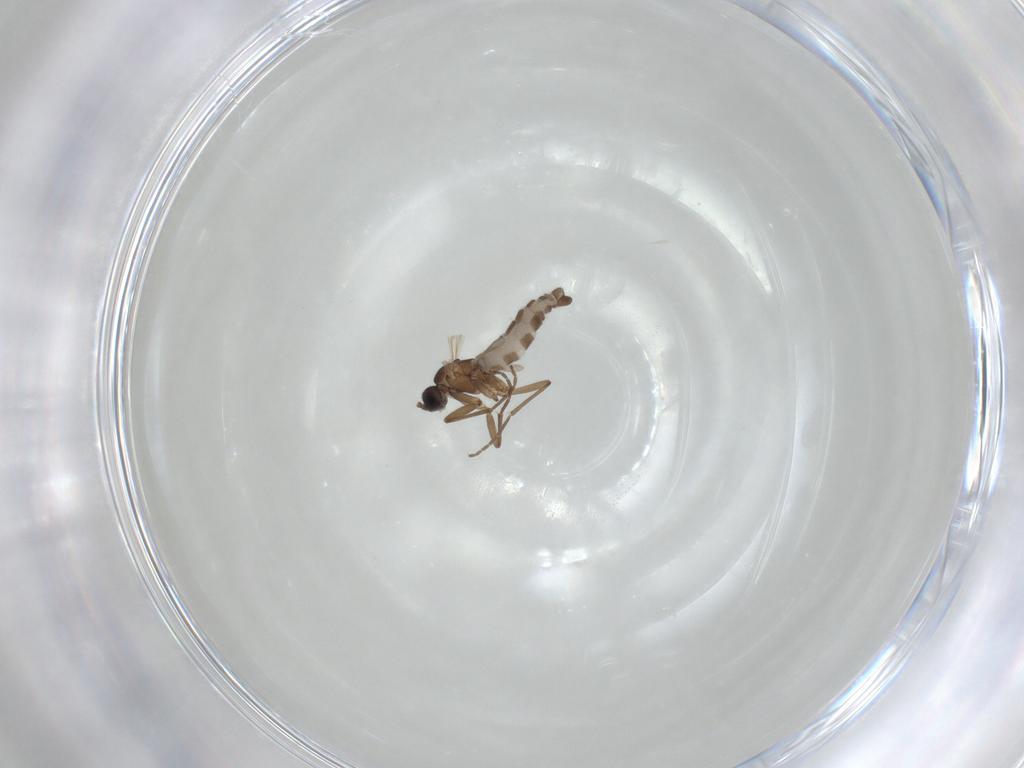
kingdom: Animalia
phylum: Arthropoda
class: Insecta
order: Diptera
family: Sciaridae
